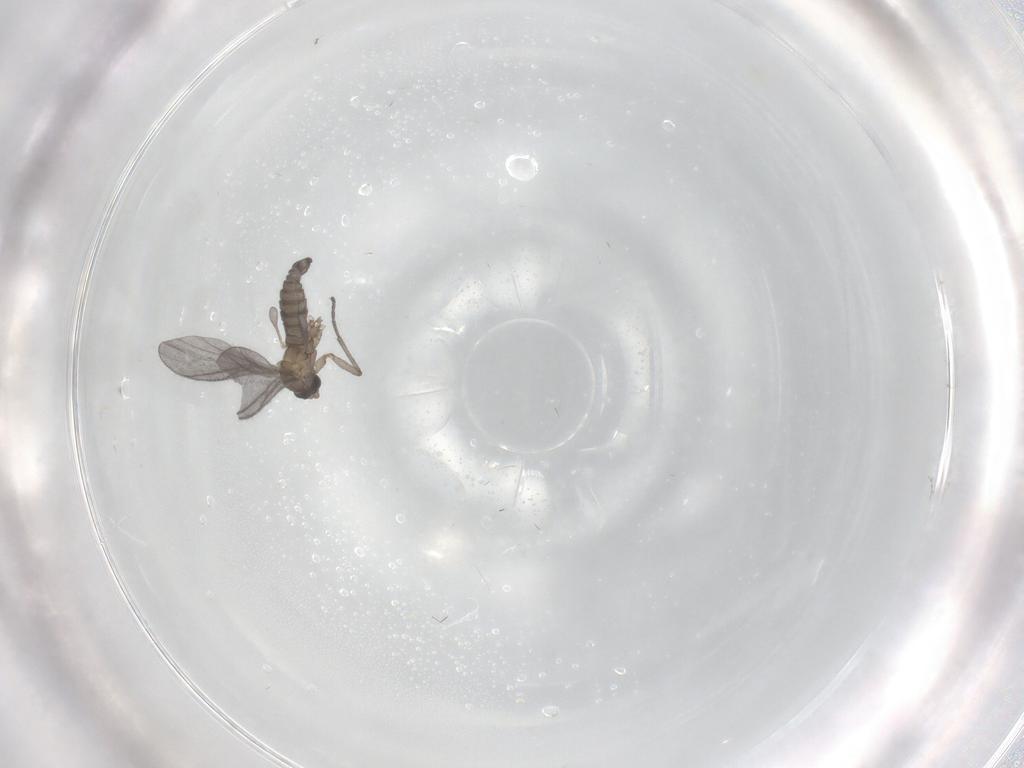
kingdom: Animalia
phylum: Arthropoda
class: Insecta
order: Diptera
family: Sciaridae
